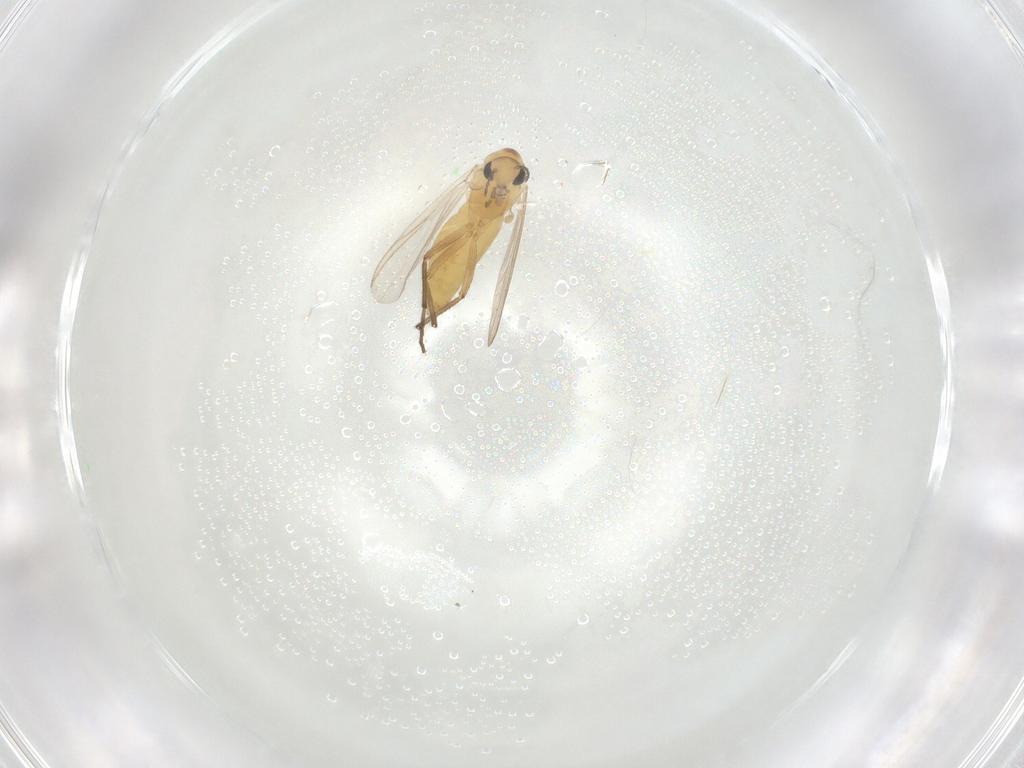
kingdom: Animalia
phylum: Arthropoda
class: Insecta
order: Diptera
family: Chironomidae
